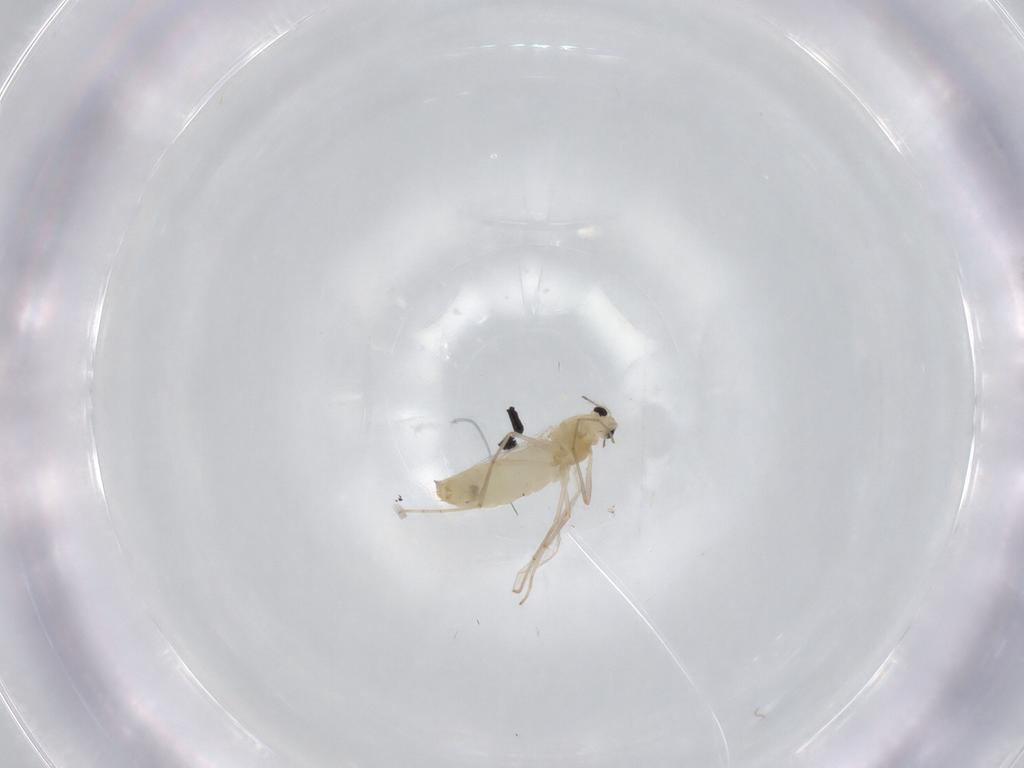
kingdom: Animalia
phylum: Arthropoda
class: Insecta
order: Diptera
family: Chironomidae
